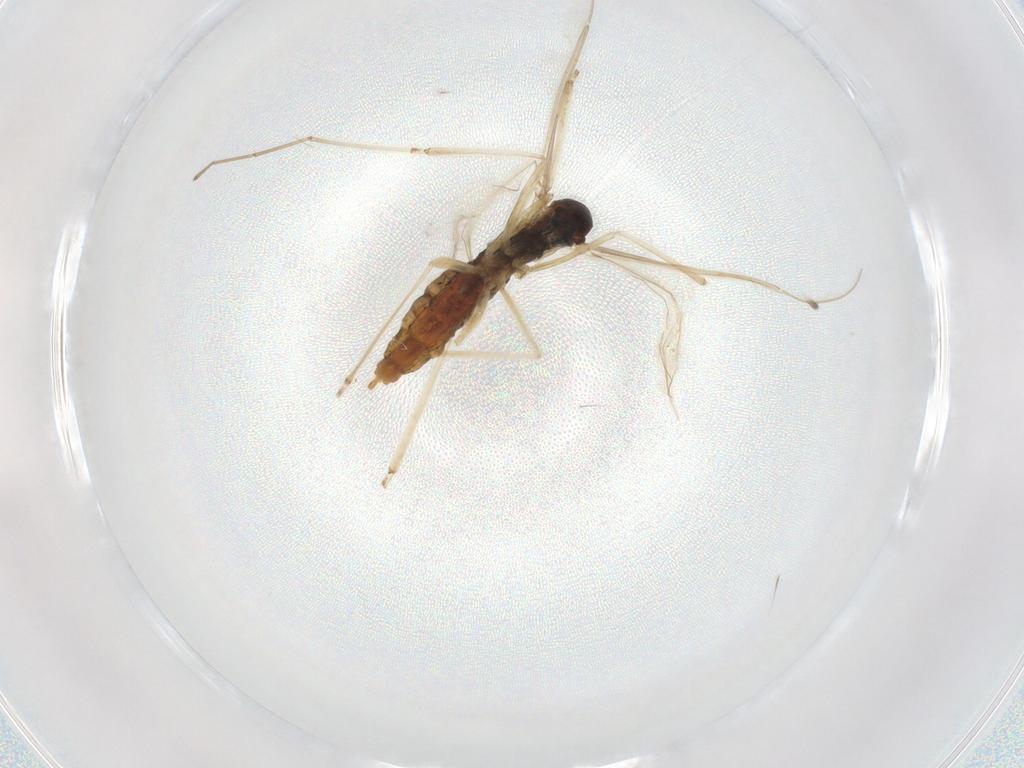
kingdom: Animalia
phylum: Arthropoda
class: Insecta
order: Diptera
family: Cecidomyiidae
